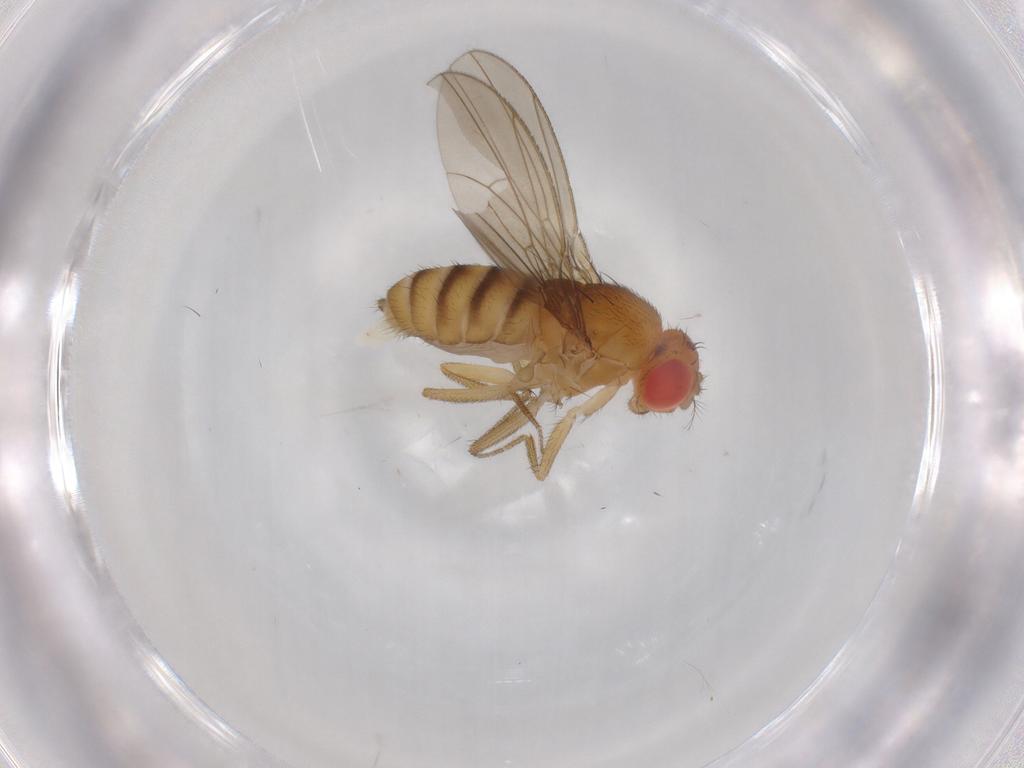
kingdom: Animalia
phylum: Arthropoda
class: Insecta
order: Diptera
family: Drosophilidae
